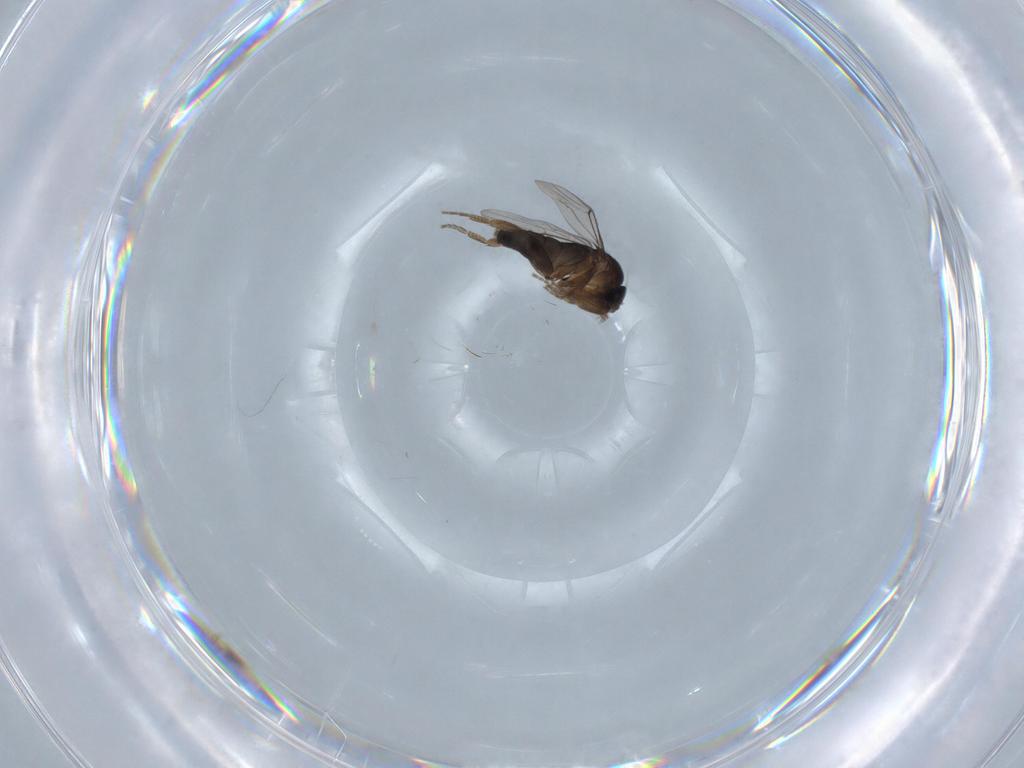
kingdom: Animalia
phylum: Arthropoda
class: Insecta
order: Diptera
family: Phoridae
